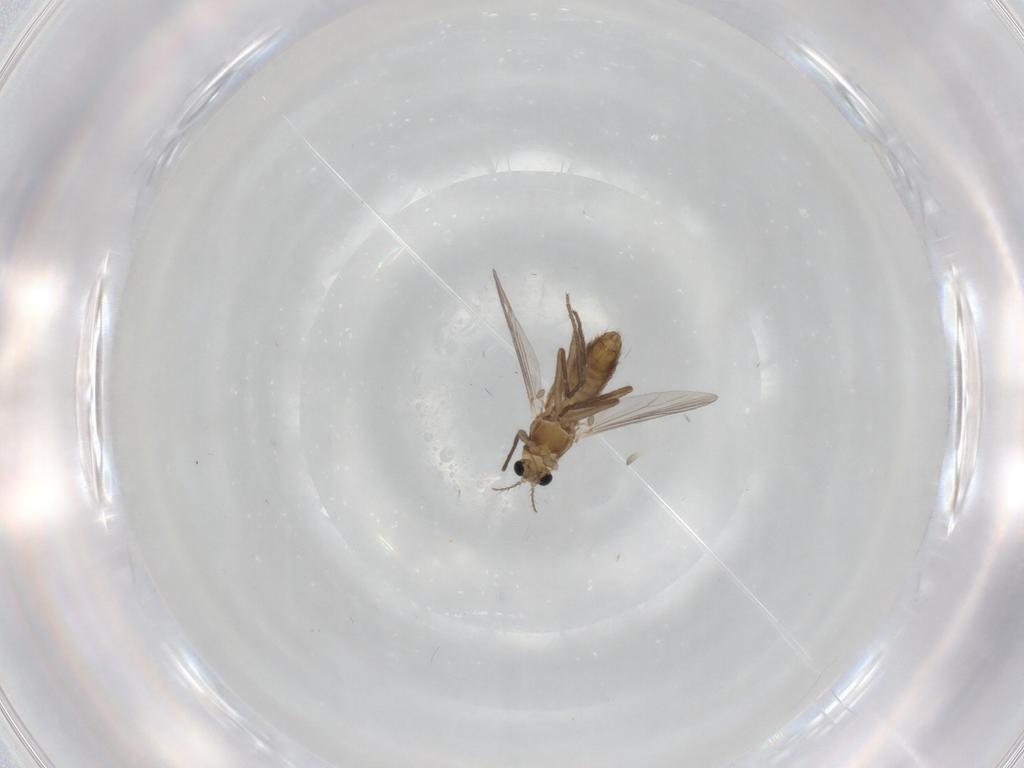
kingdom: Animalia
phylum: Arthropoda
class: Insecta
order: Diptera
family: Chironomidae
